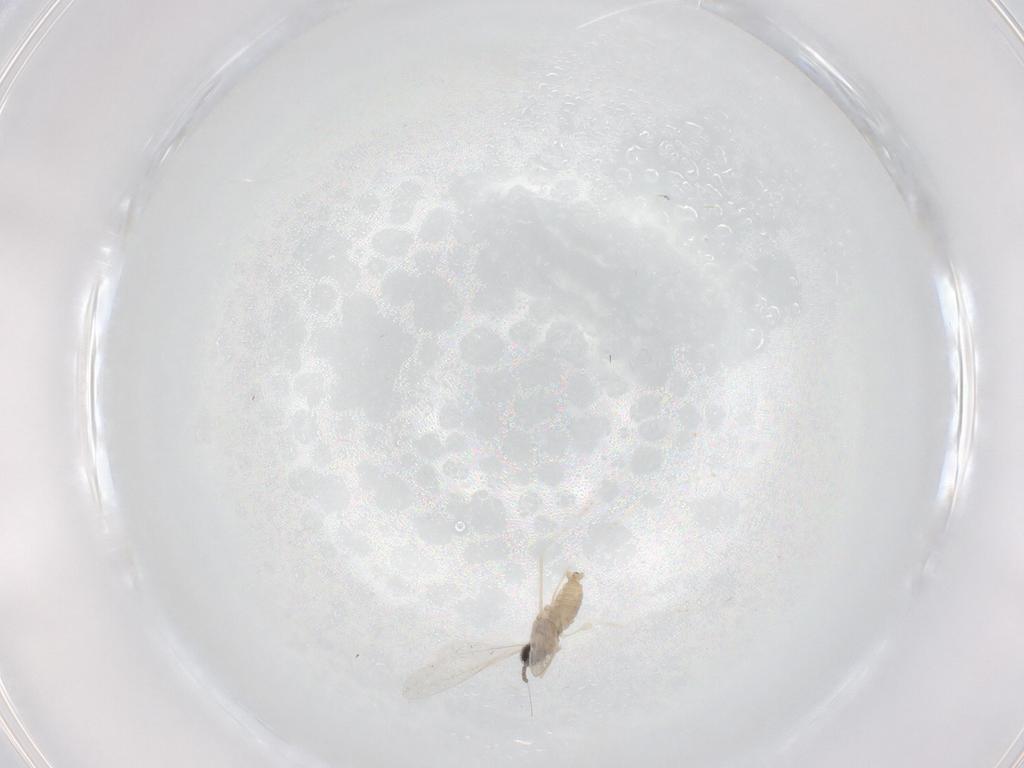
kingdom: Animalia
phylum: Arthropoda
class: Insecta
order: Diptera
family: Cecidomyiidae
